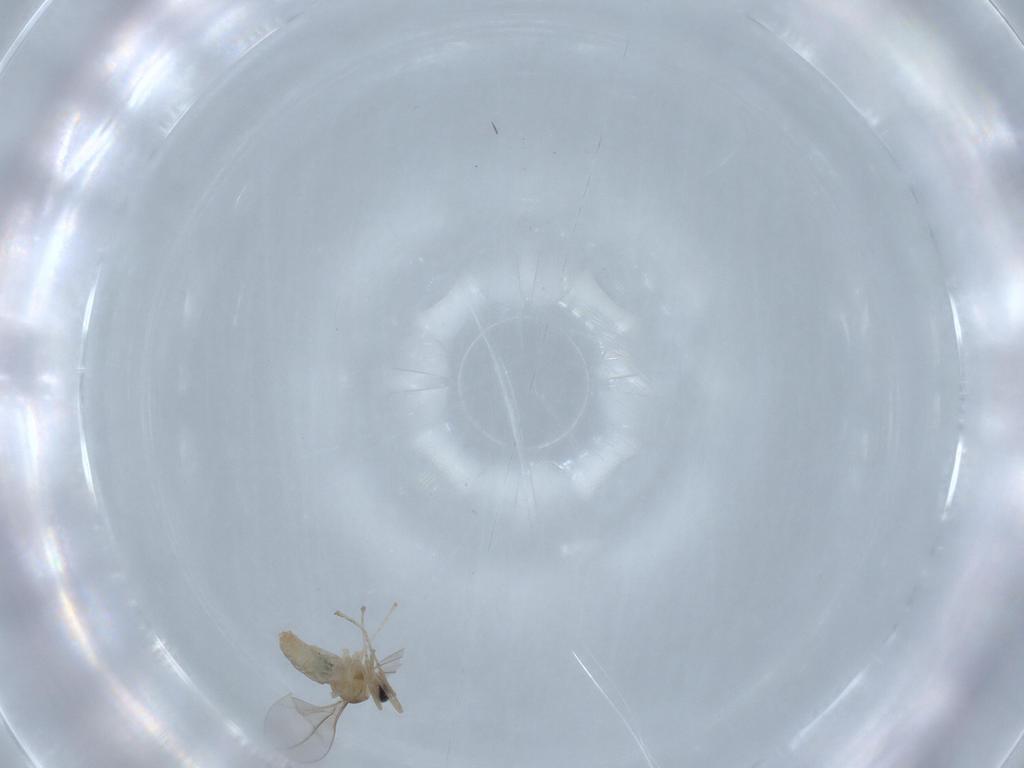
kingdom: Animalia
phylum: Arthropoda
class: Insecta
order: Diptera
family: Cecidomyiidae
